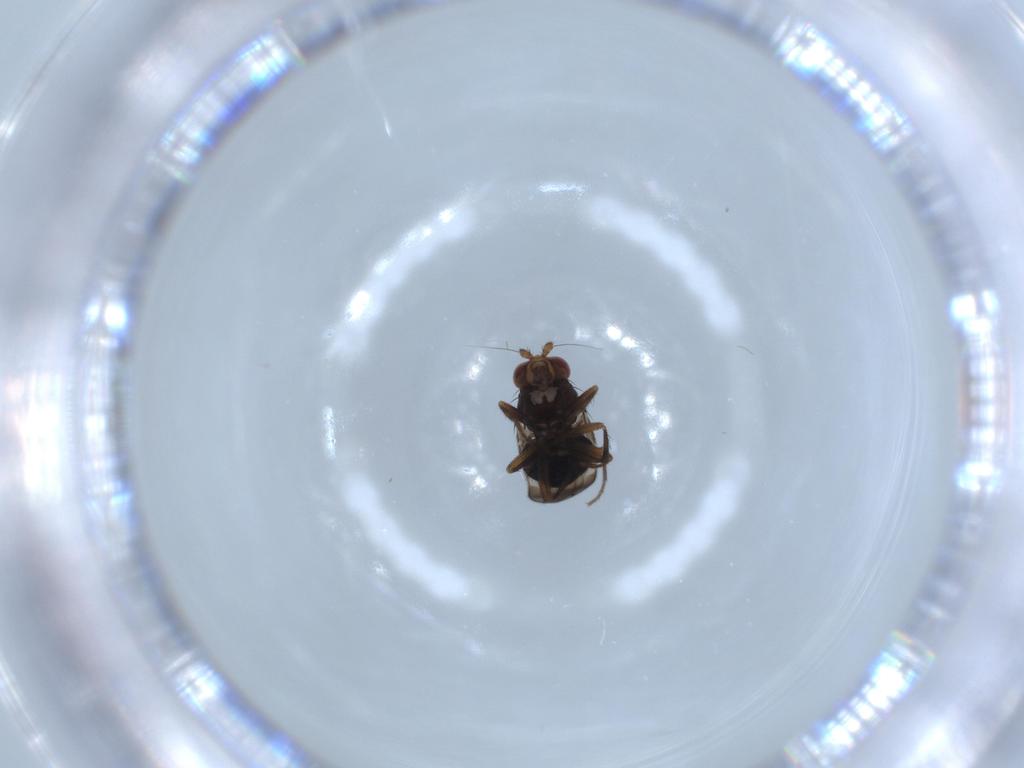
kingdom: Animalia
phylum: Arthropoda
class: Insecta
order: Diptera
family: Sphaeroceridae
